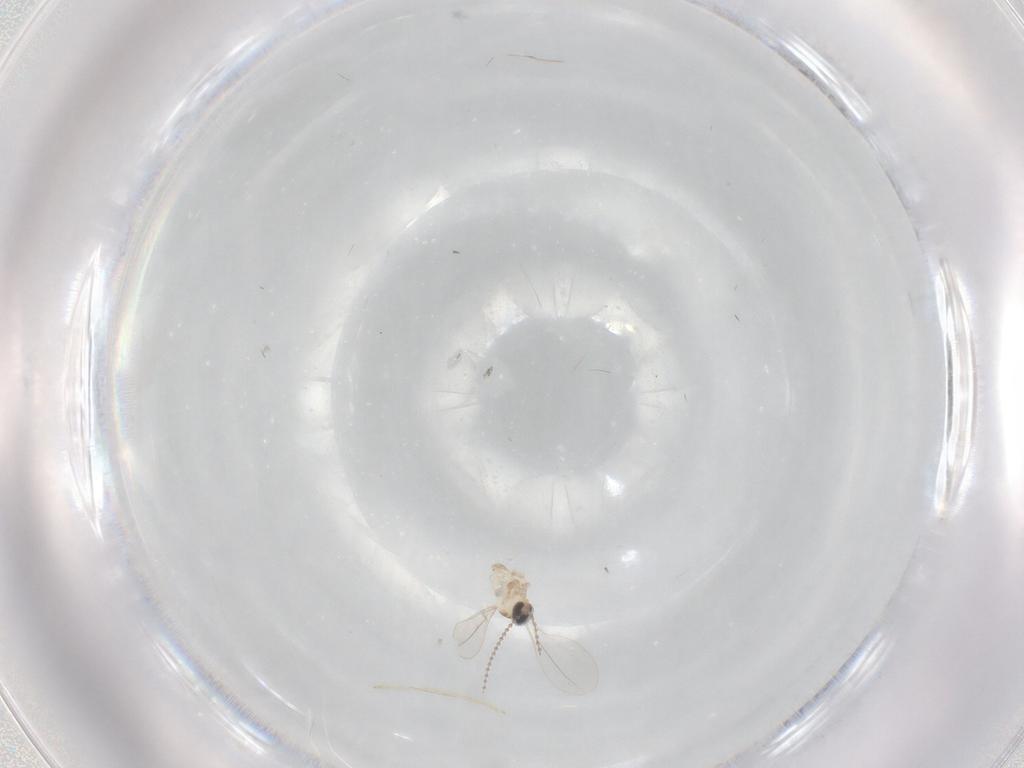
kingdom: Animalia
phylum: Arthropoda
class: Insecta
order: Diptera
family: Cecidomyiidae
